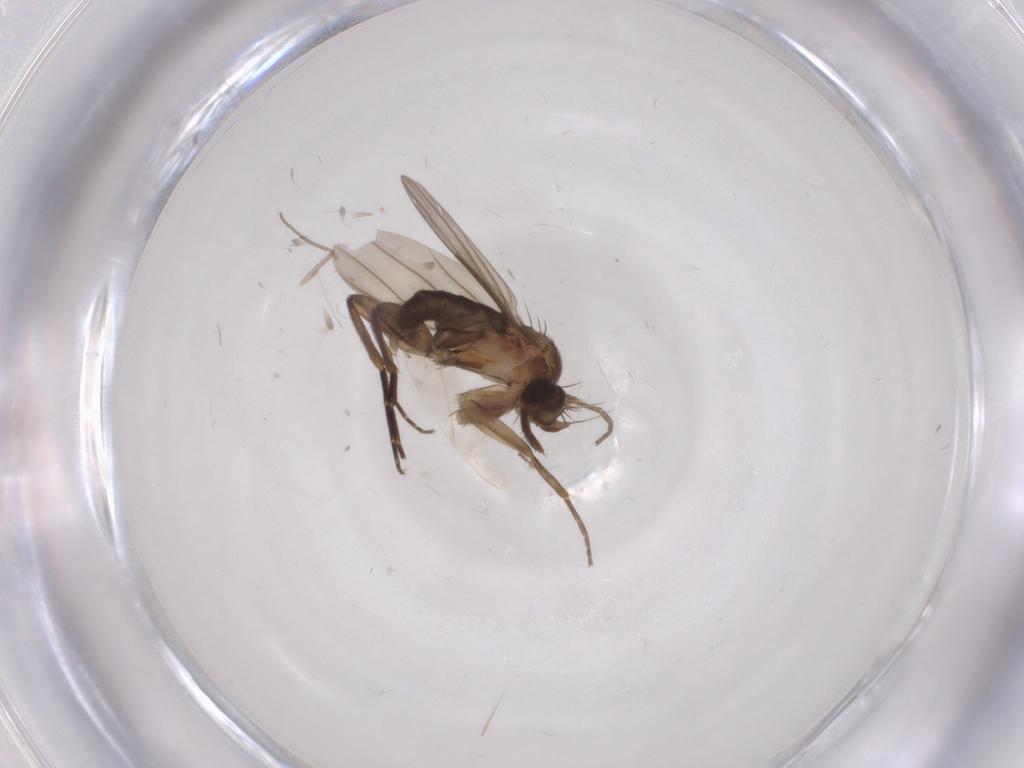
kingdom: Animalia
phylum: Arthropoda
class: Insecta
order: Diptera
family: Phoridae
